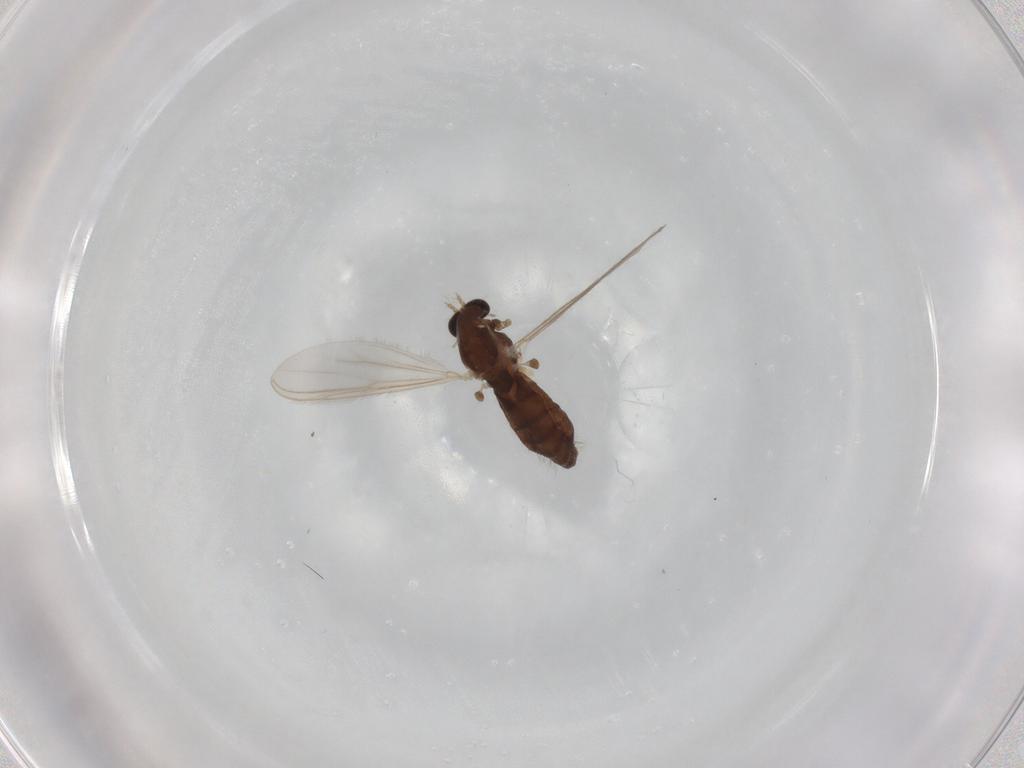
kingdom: Animalia
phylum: Arthropoda
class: Insecta
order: Diptera
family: Chironomidae
